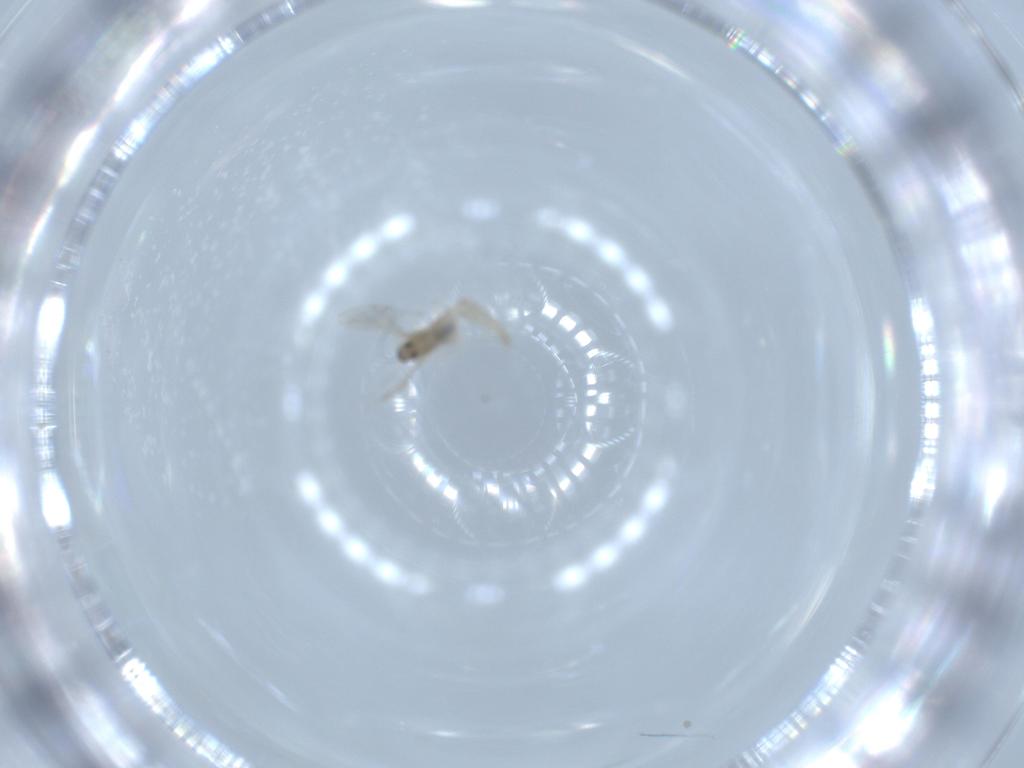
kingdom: Animalia
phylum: Arthropoda
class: Insecta
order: Diptera
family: Cecidomyiidae
